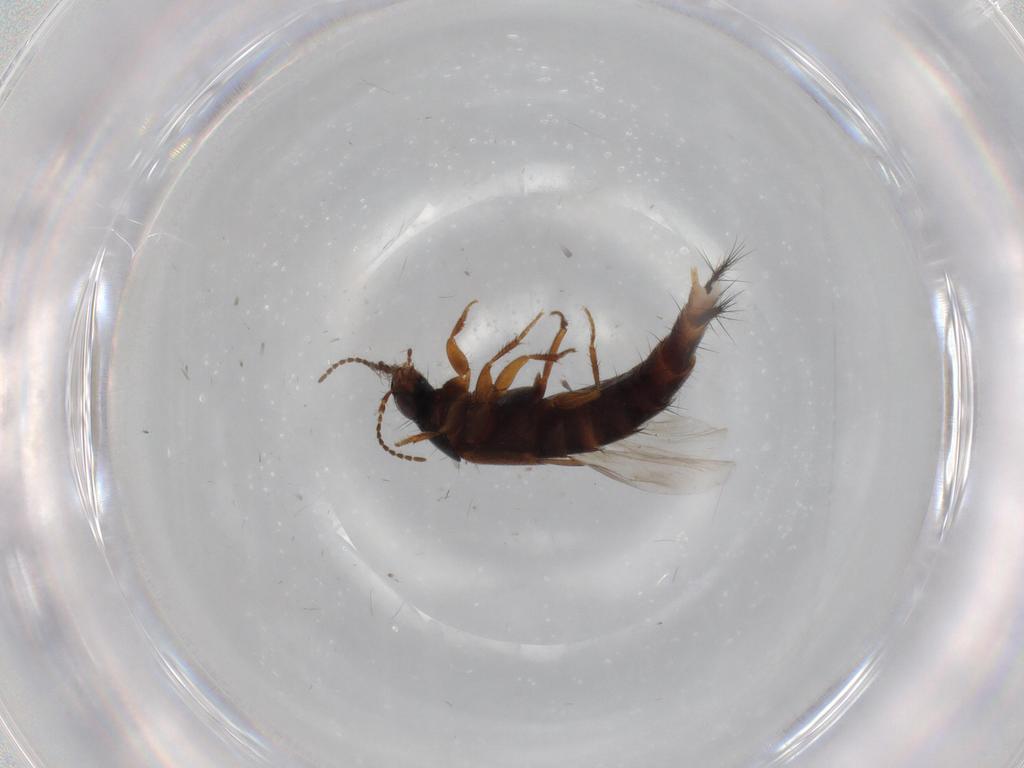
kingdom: Animalia
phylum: Arthropoda
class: Insecta
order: Coleoptera
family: Staphylinidae
